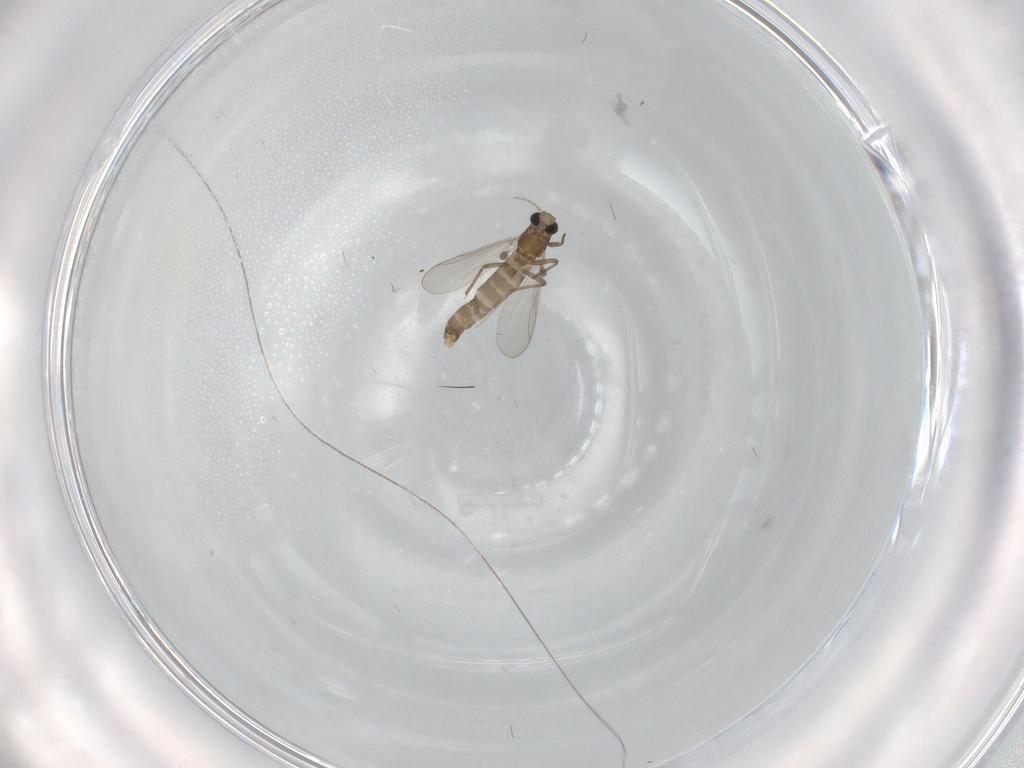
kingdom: Animalia
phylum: Arthropoda
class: Insecta
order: Diptera
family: Chironomidae
